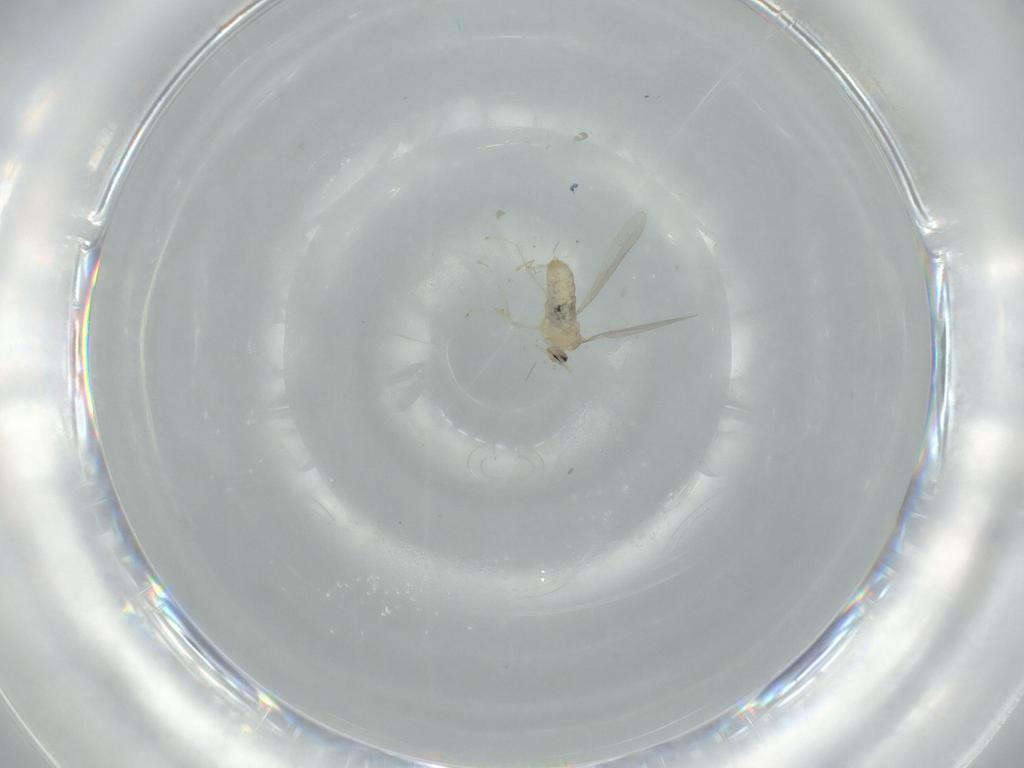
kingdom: Animalia
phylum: Arthropoda
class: Insecta
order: Diptera
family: Cecidomyiidae
